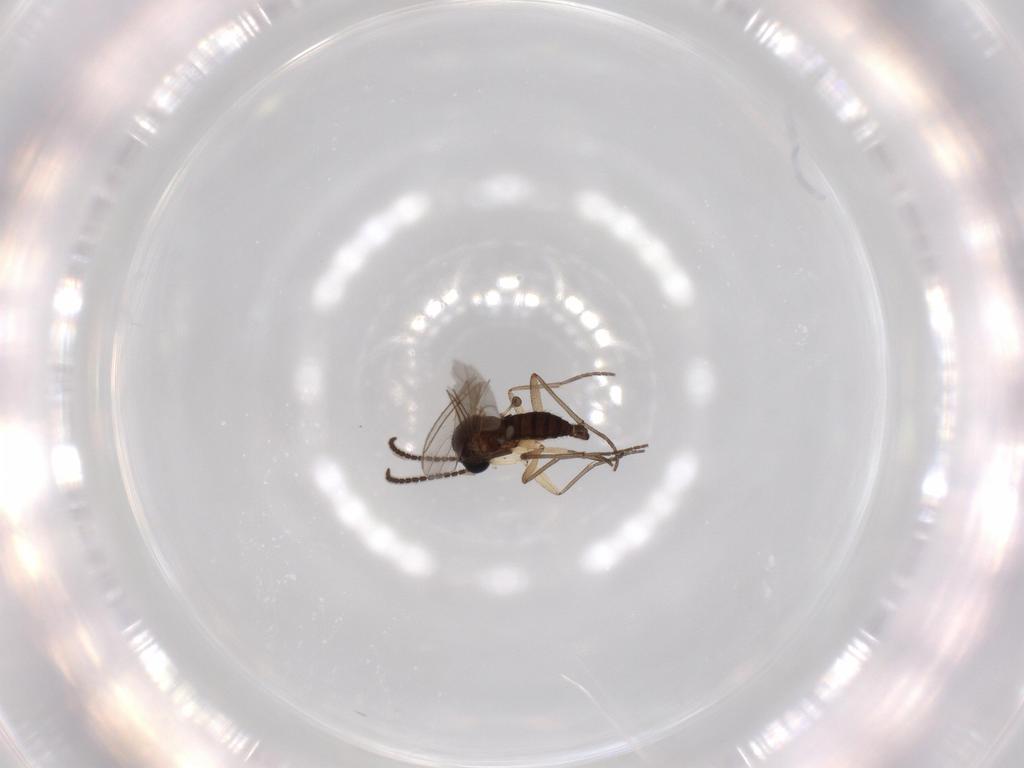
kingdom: Animalia
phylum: Arthropoda
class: Insecta
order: Diptera
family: Sciaridae
